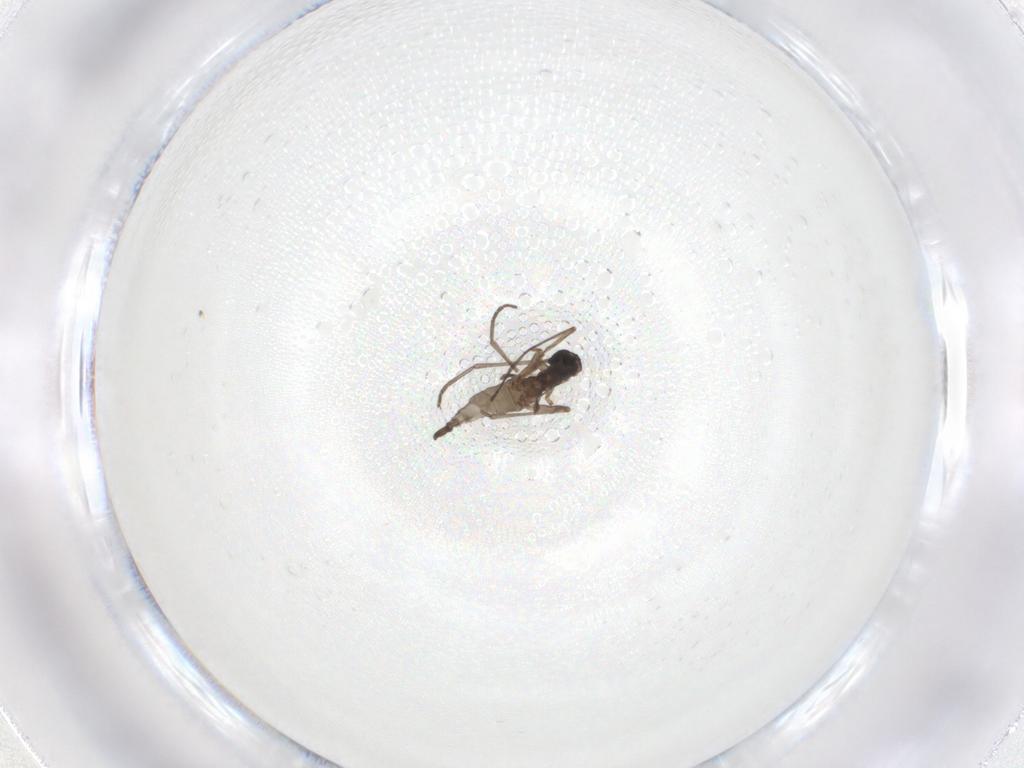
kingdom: Animalia
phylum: Arthropoda
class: Insecta
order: Diptera
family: Sciaridae
